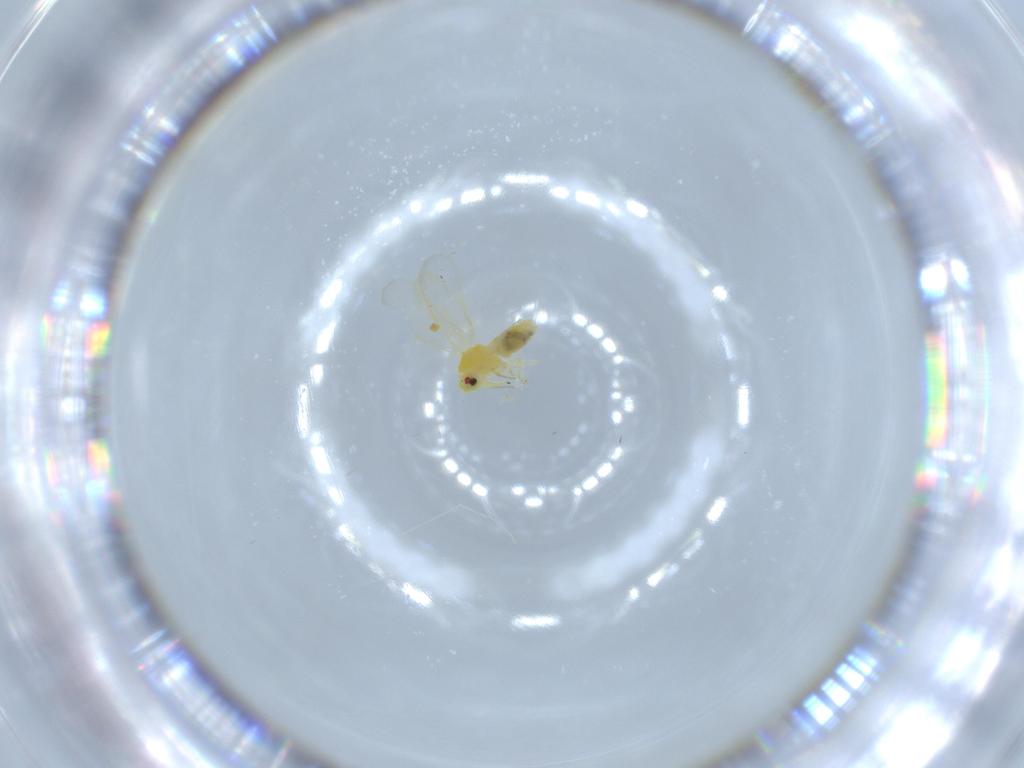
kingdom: Animalia
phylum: Arthropoda
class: Insecta
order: Hemiptera
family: Aleyrodidae
